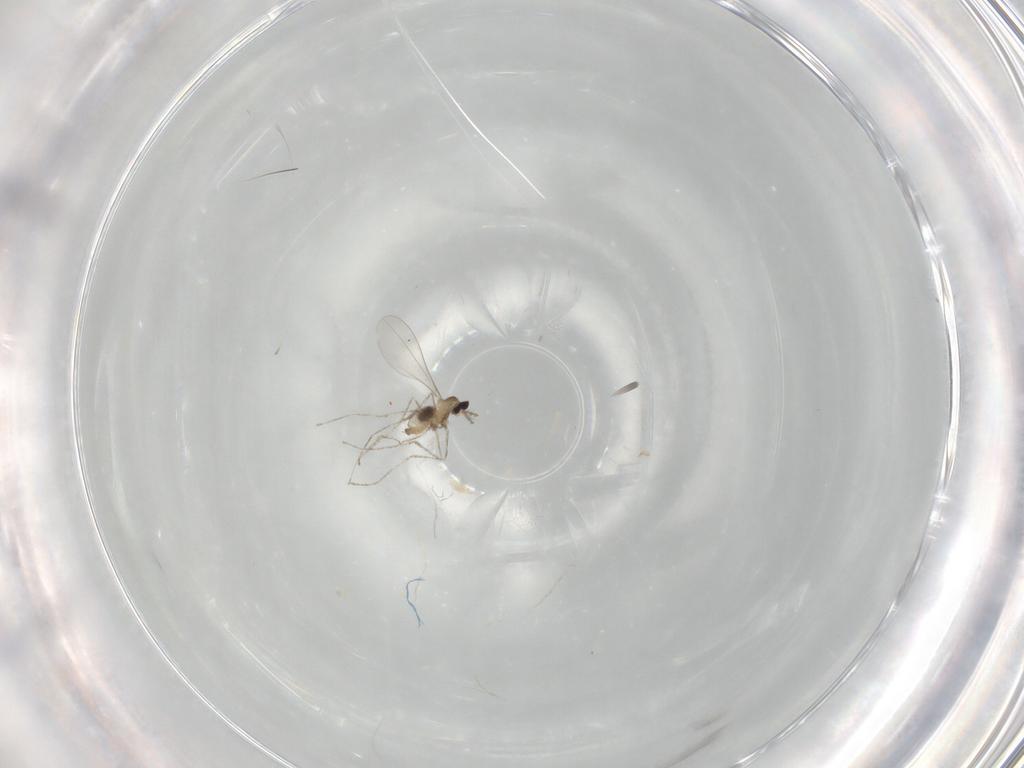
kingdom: Animalia
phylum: Arthropoda
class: Insecta
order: Diptera
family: Cecidomyiidae
